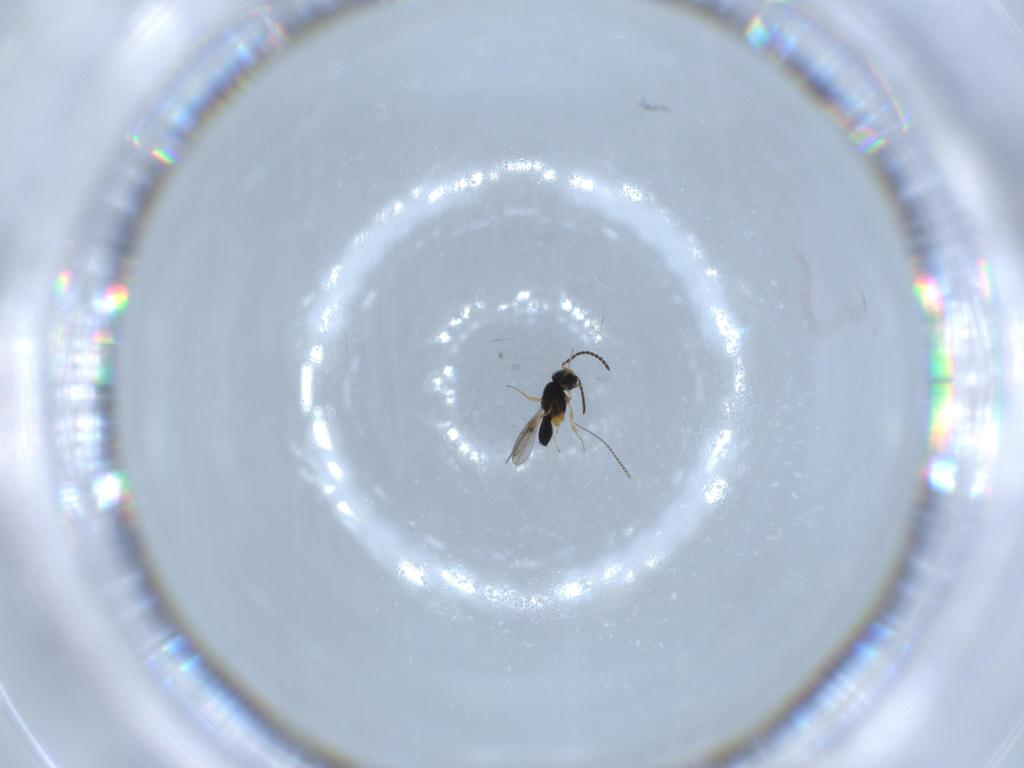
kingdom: Animalia
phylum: Arthropoda
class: Insecta
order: Hymenoptera
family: Scelionidae
